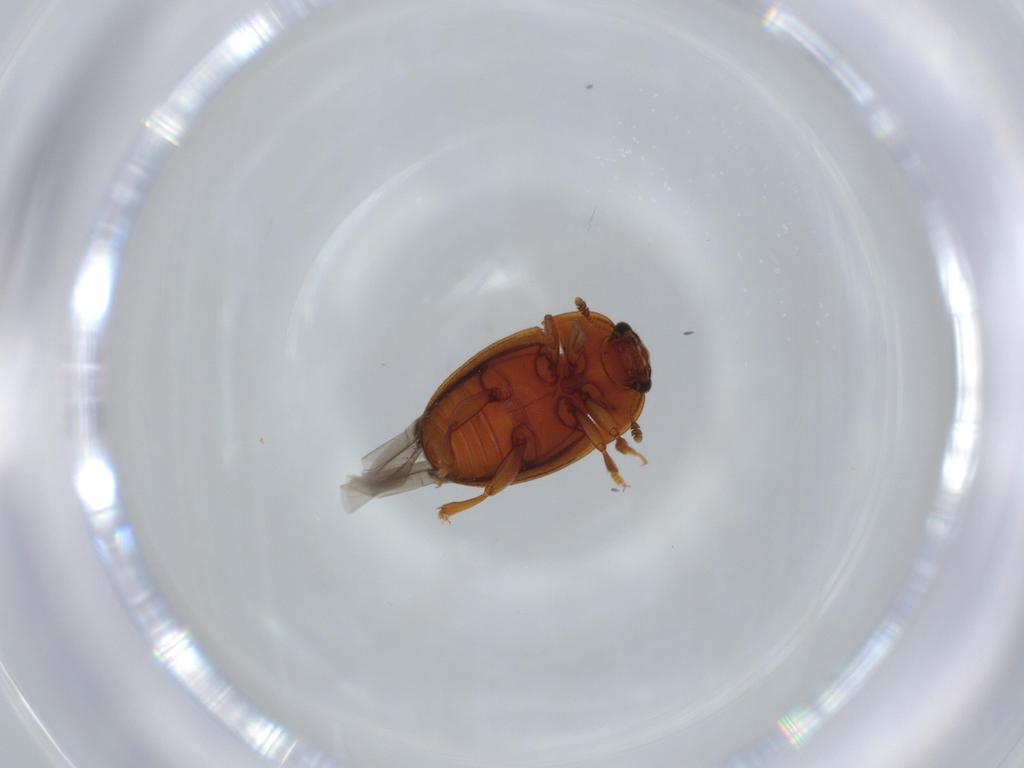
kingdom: Animalia
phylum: Arthropoda
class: Insecta
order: Coleoptera
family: Nitidulidae
